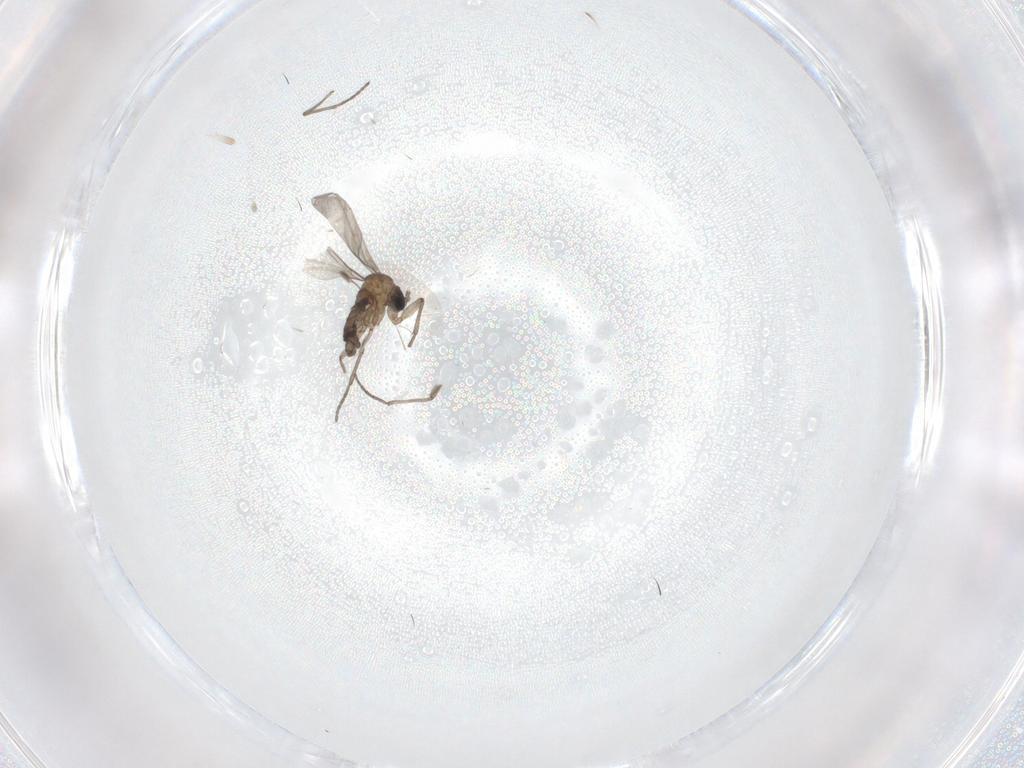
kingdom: Animalia
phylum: Arthropoda
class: Insecta
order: Diptera
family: Phoridae
